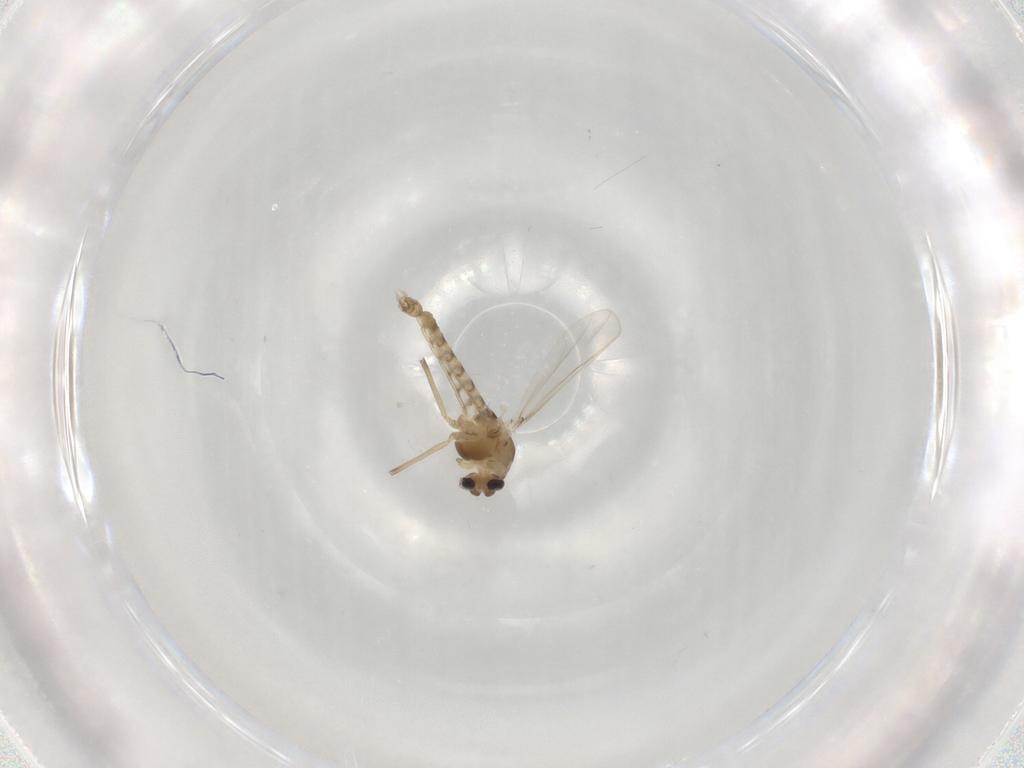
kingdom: Animalia
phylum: Arthropoda
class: Insecta
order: Diptera
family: Chironomidae
